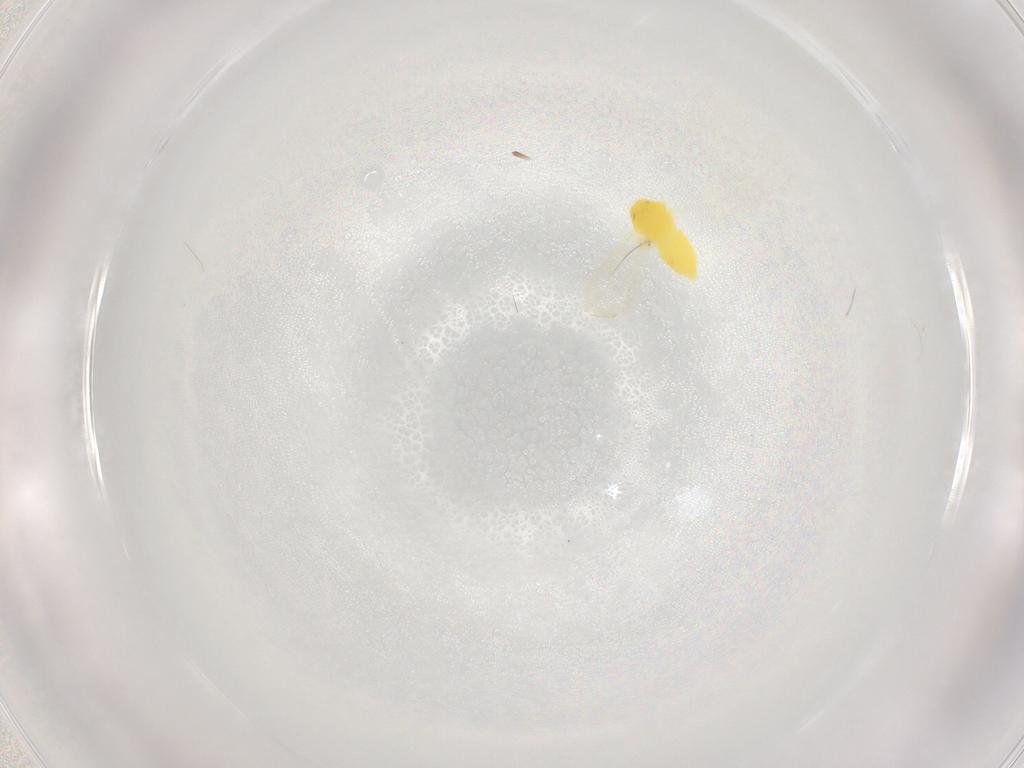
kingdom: Animalia
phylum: Arthropoda
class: Insecta
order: Hemiptera
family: Aleyrodidae
